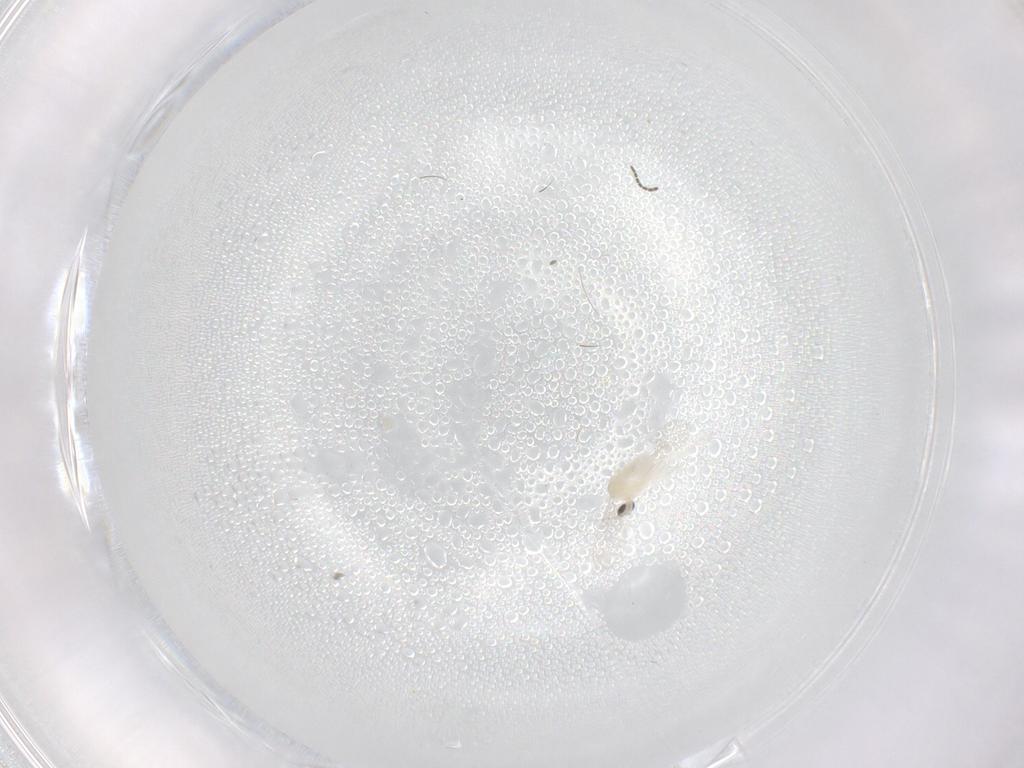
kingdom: Animalia
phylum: Arthropoda
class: Insecta
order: Diptera
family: Cecidomyiidae
